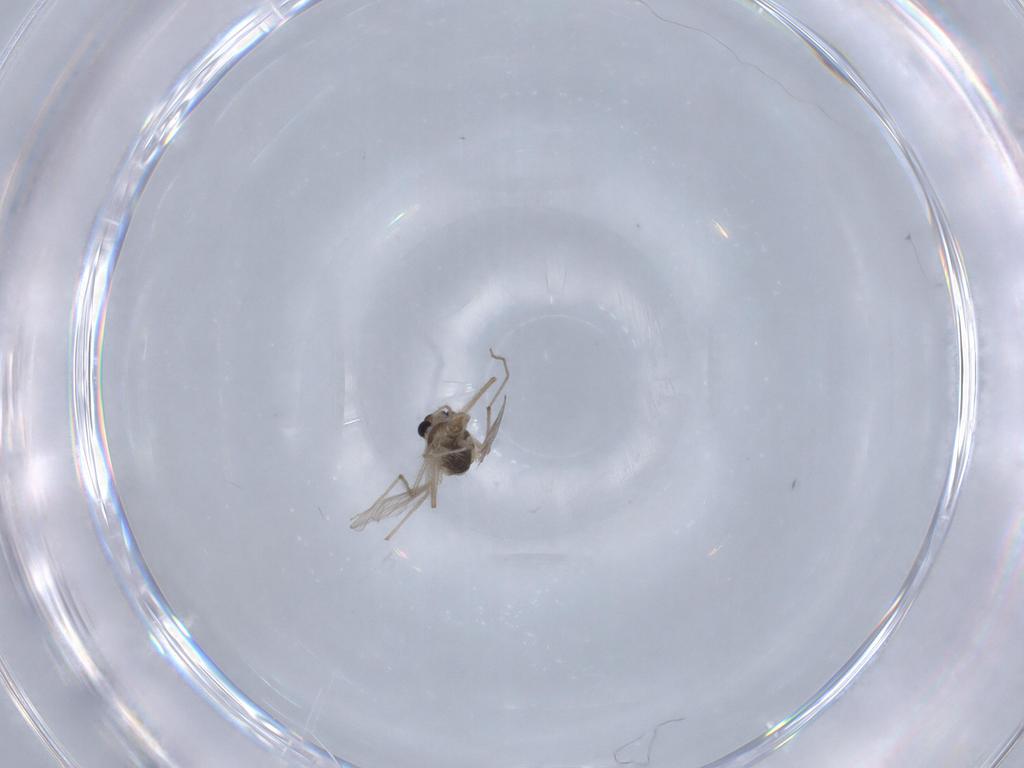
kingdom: Animalia
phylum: Arthropoda
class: Insecta
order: Diptera
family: Chironomidae
